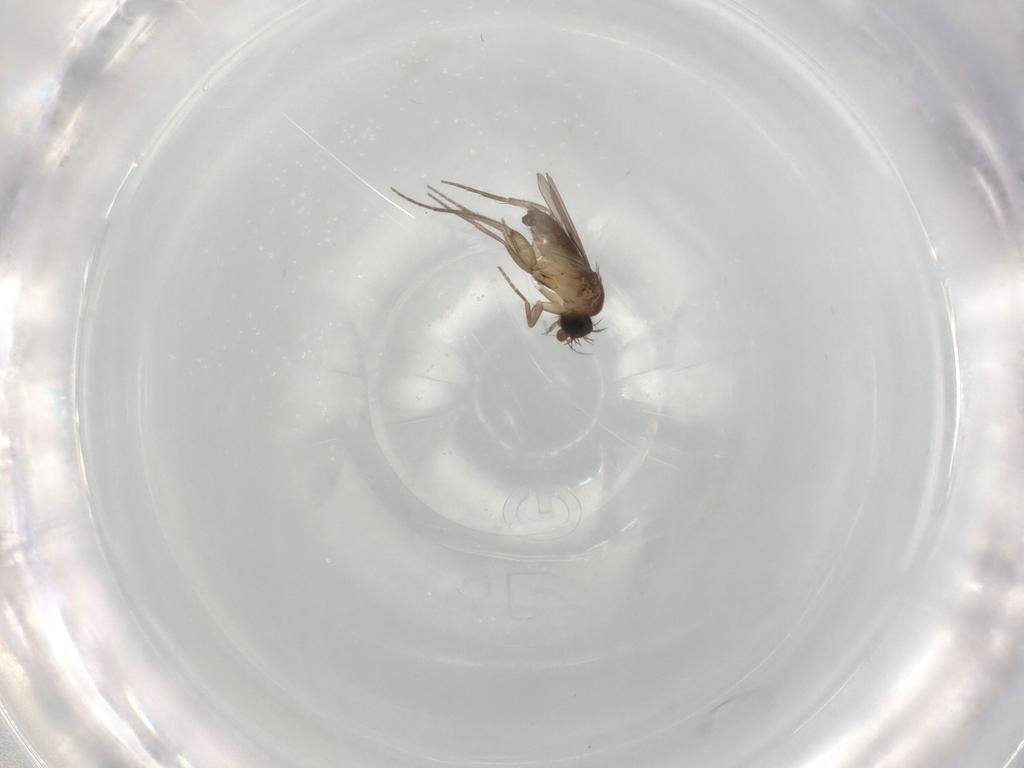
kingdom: Animalia
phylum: Arthropoda
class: Insecta
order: Diptera
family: Phoridae
